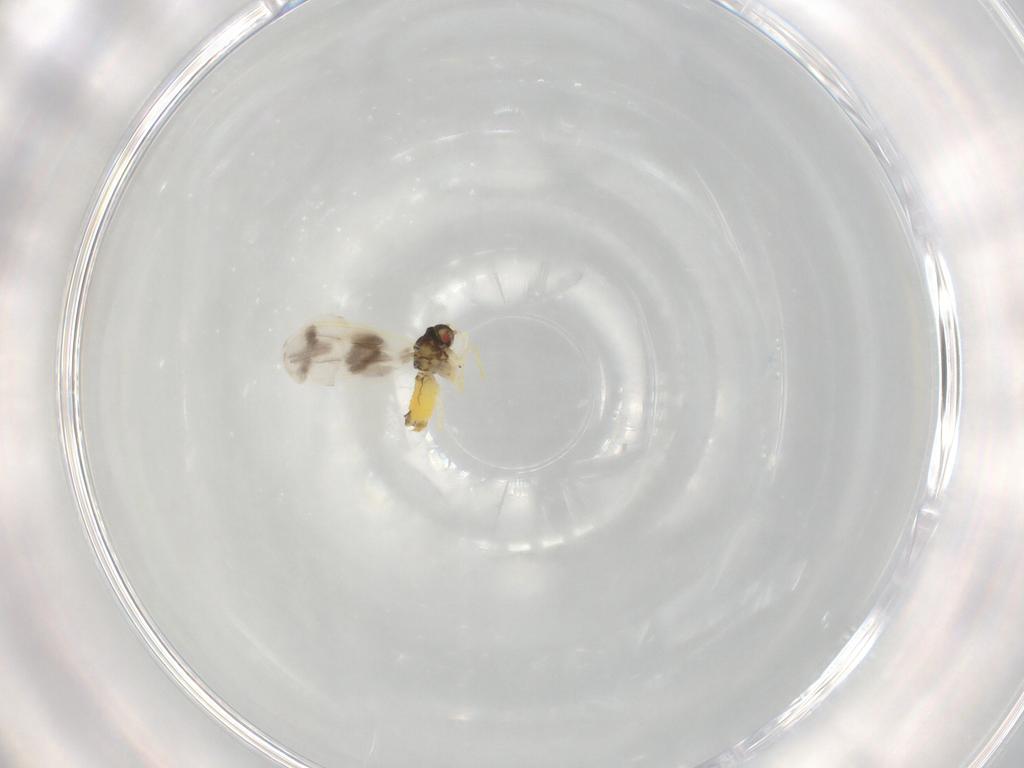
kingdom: Animalia
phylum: Arthropoda
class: Insecta
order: Hemiptera
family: Aleyrodidae
